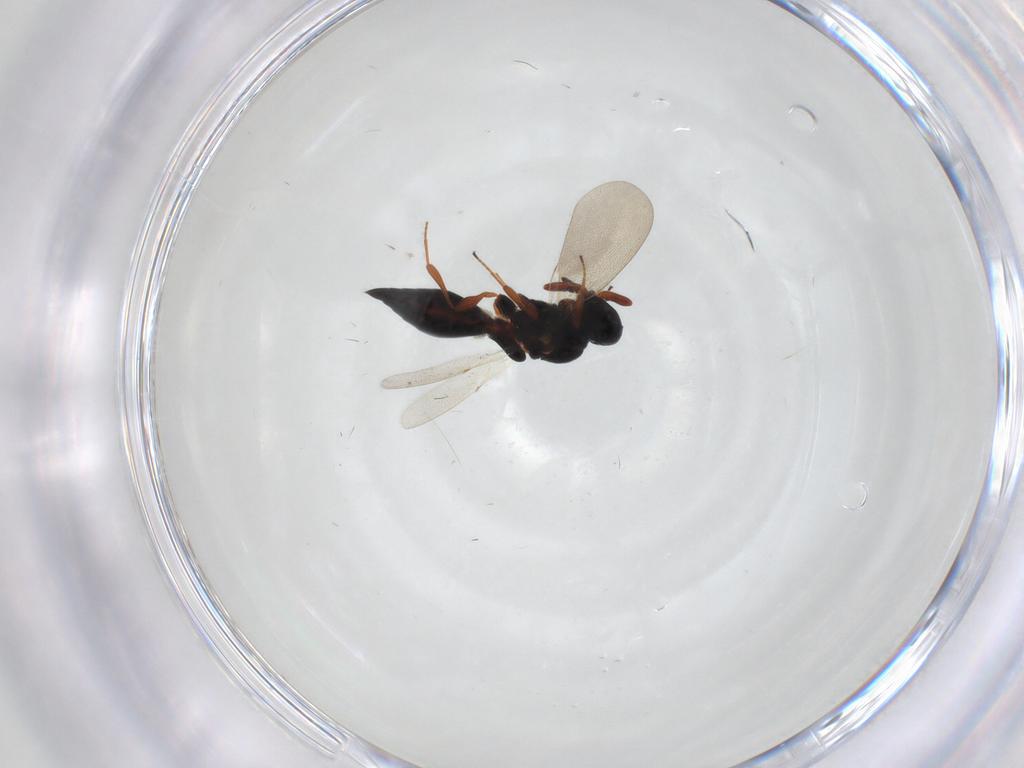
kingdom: Animalia
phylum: Arthropoda
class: Insecta
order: Hymenoptera
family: Platygastridae
